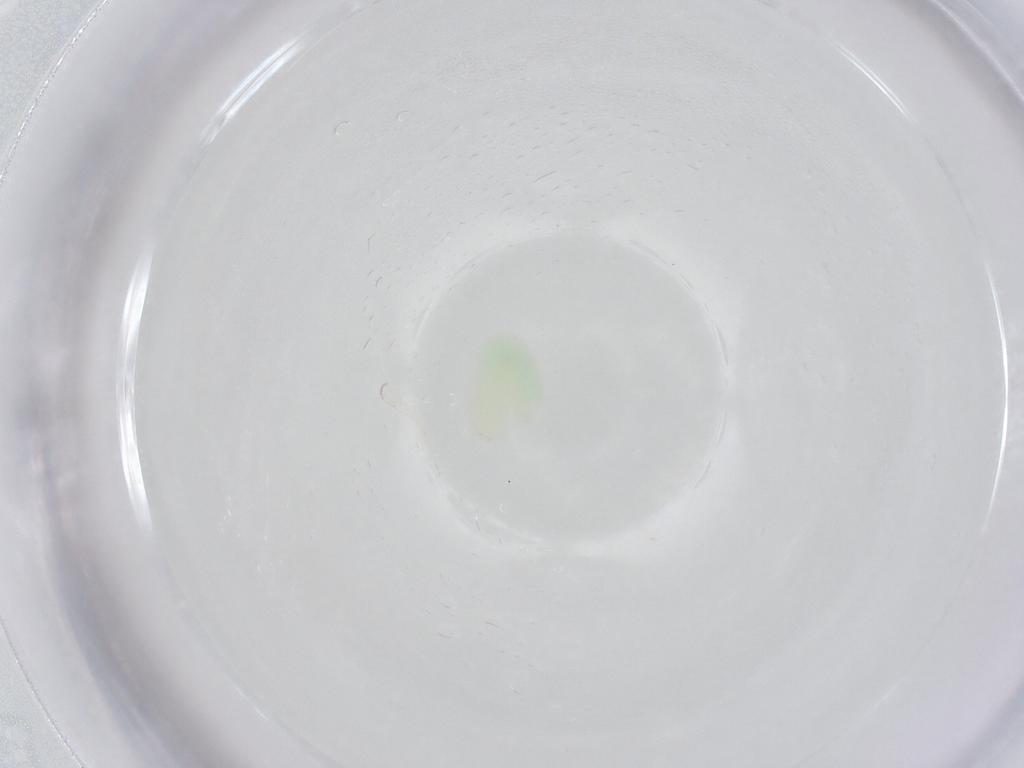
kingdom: Animalia
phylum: Arthropoda
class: Insecta
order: Hymenoptera
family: Dryinidae
